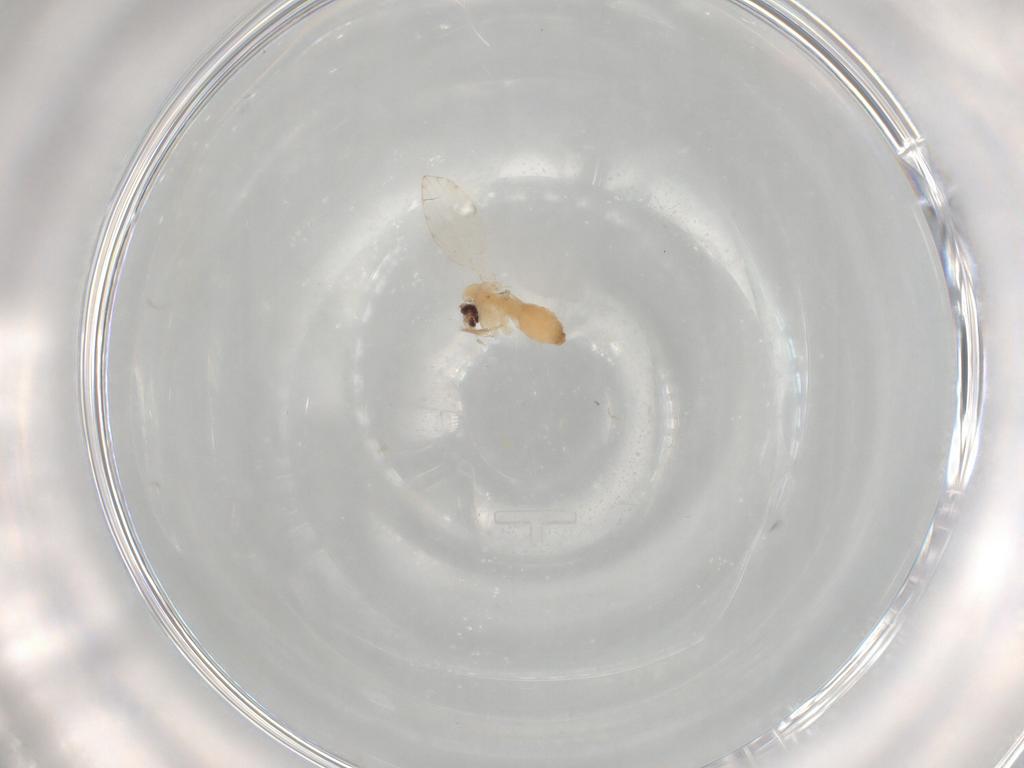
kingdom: Animalia
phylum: Arthropoda
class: Insecta
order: Diptera
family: Psychodidae
